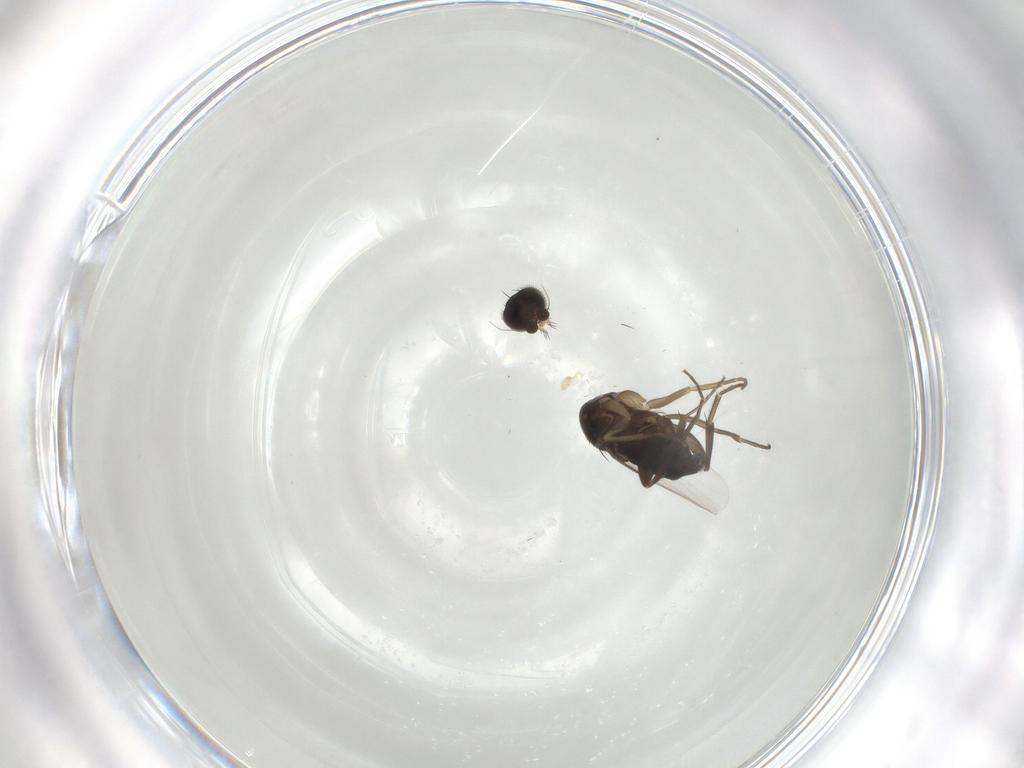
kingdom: Animalia
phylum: Arthropoda
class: Insecta
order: Diptera
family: Phoridae
